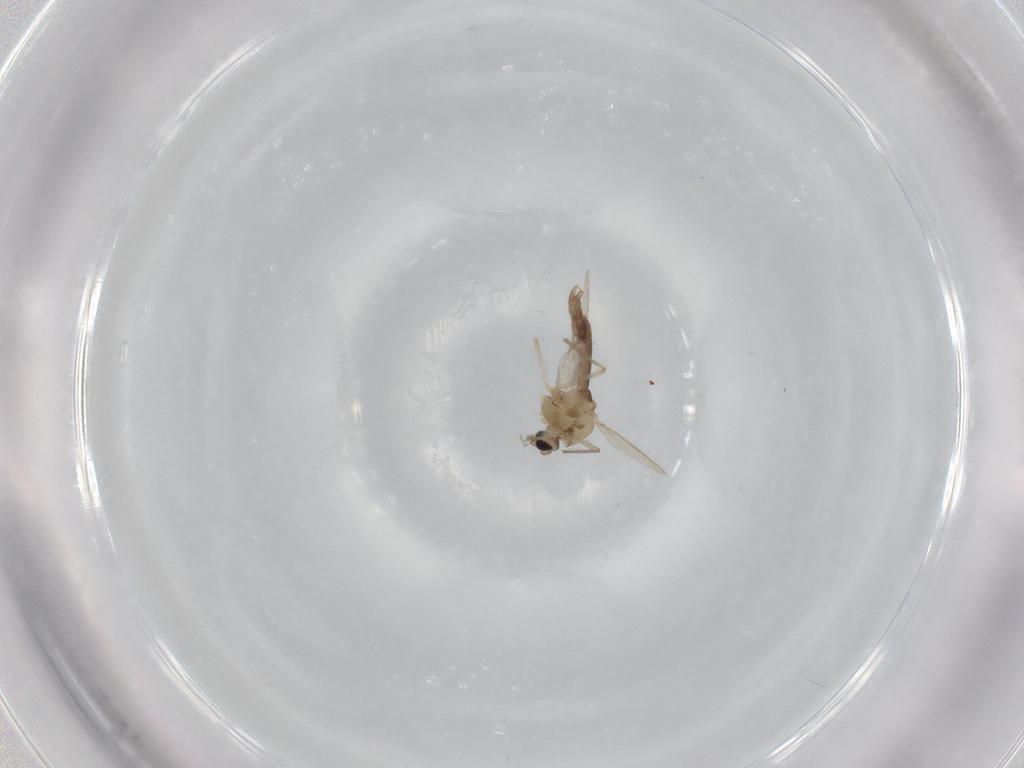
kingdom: Animalia
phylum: Arthropoda
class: Insecta
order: Diptera
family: Chironomidae
